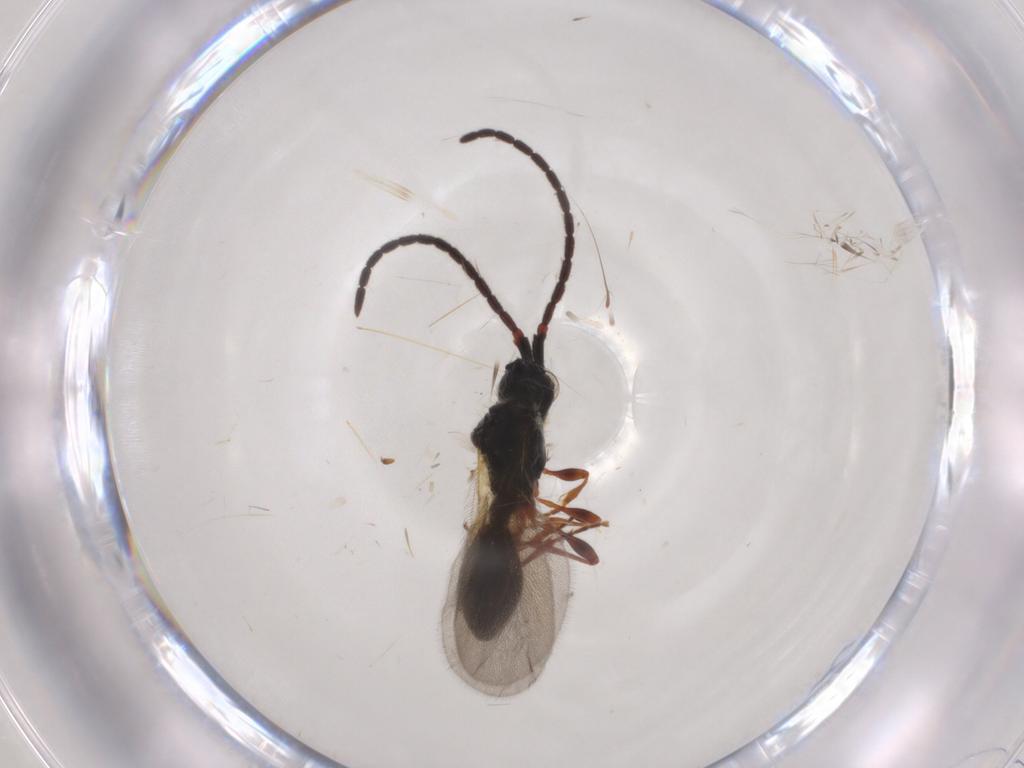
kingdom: Animalia
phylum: Arthropoda
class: Insecta
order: Hymenoptera
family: Diapriidae
